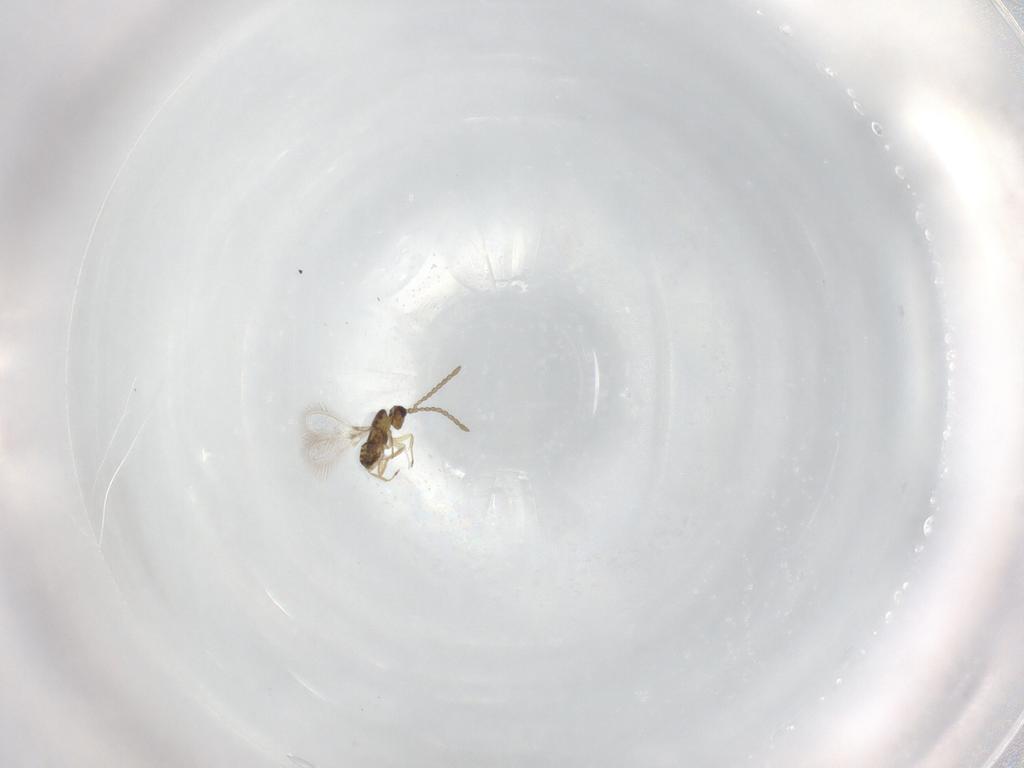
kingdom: Animalia
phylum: Arthropoda
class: Insecta
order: Hymenoptera
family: Mymaridae
